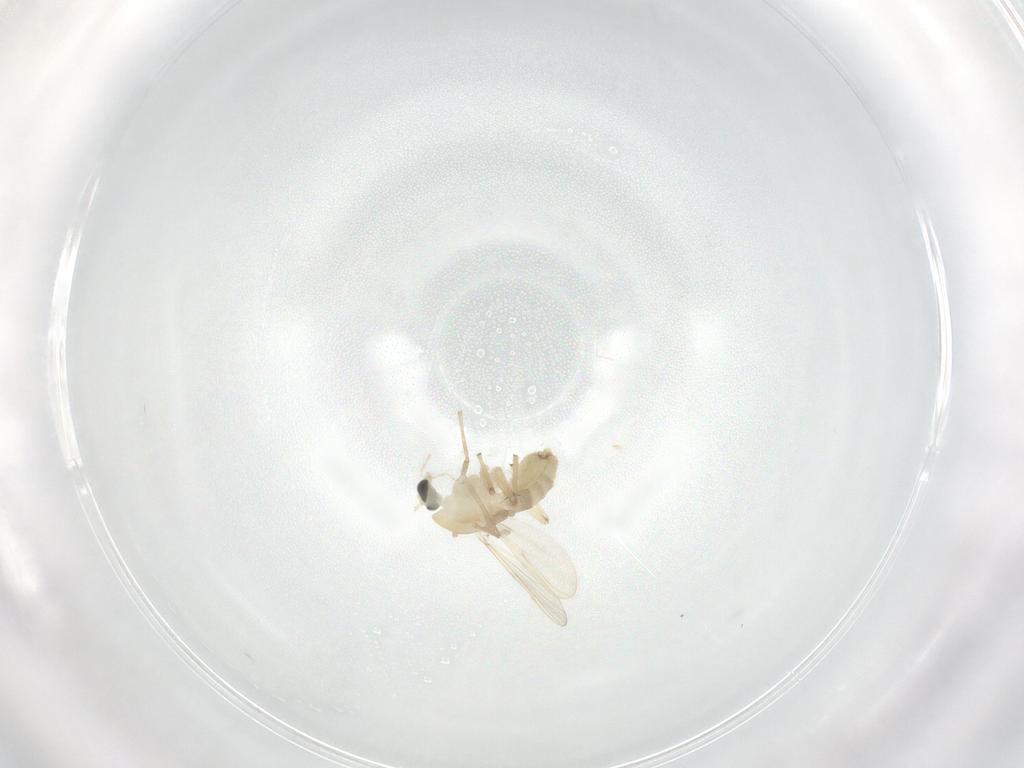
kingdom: Animalia
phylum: Arthropoda
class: Insecta
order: Diptera
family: Chironomidae
